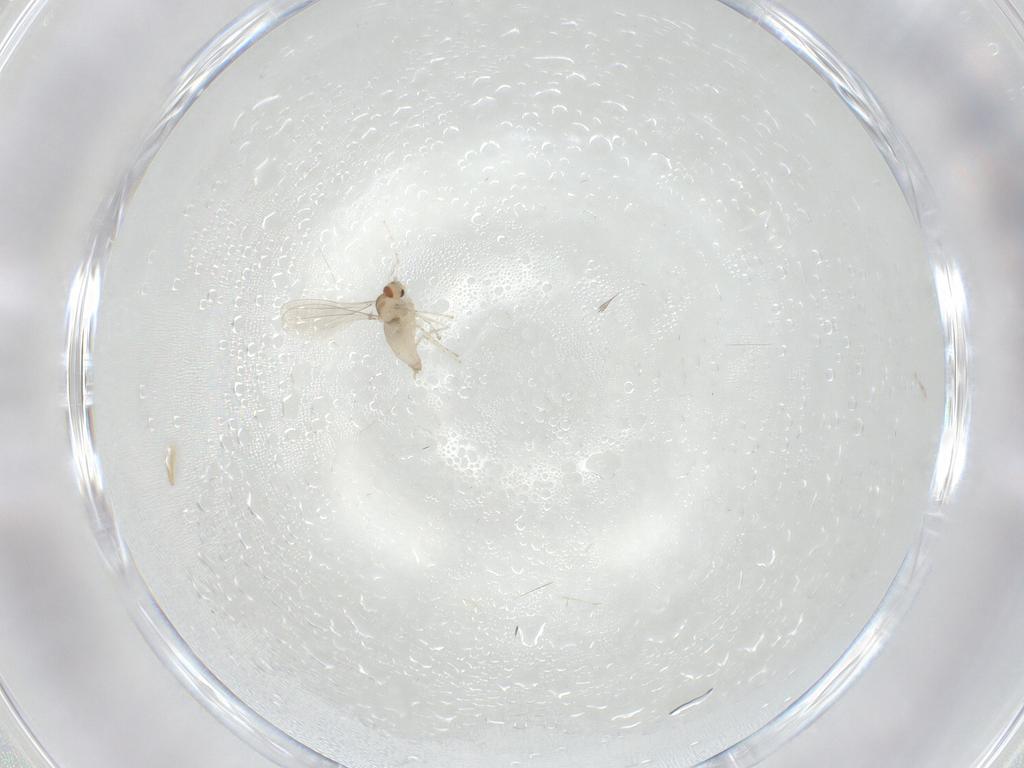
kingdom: Animalia
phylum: Arthropoda
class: Insecta
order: Diptera
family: Cecidomyiidae
